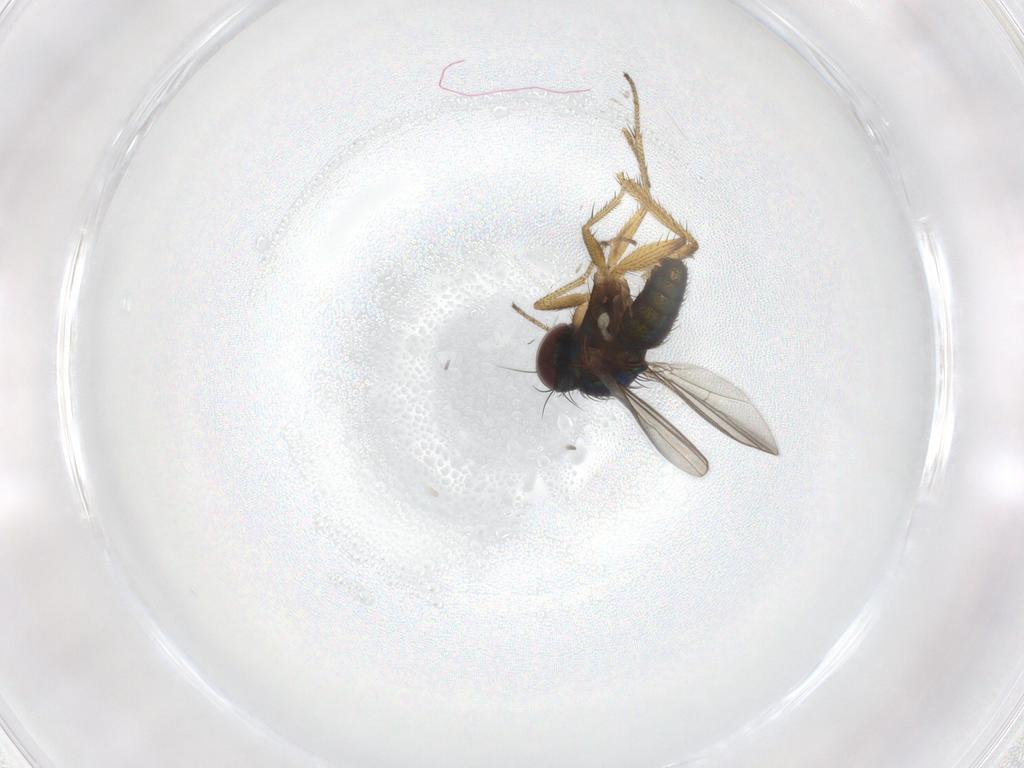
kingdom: Animalia
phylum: Arthropoda
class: Insecta
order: Diptera
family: Dolichopodidae
